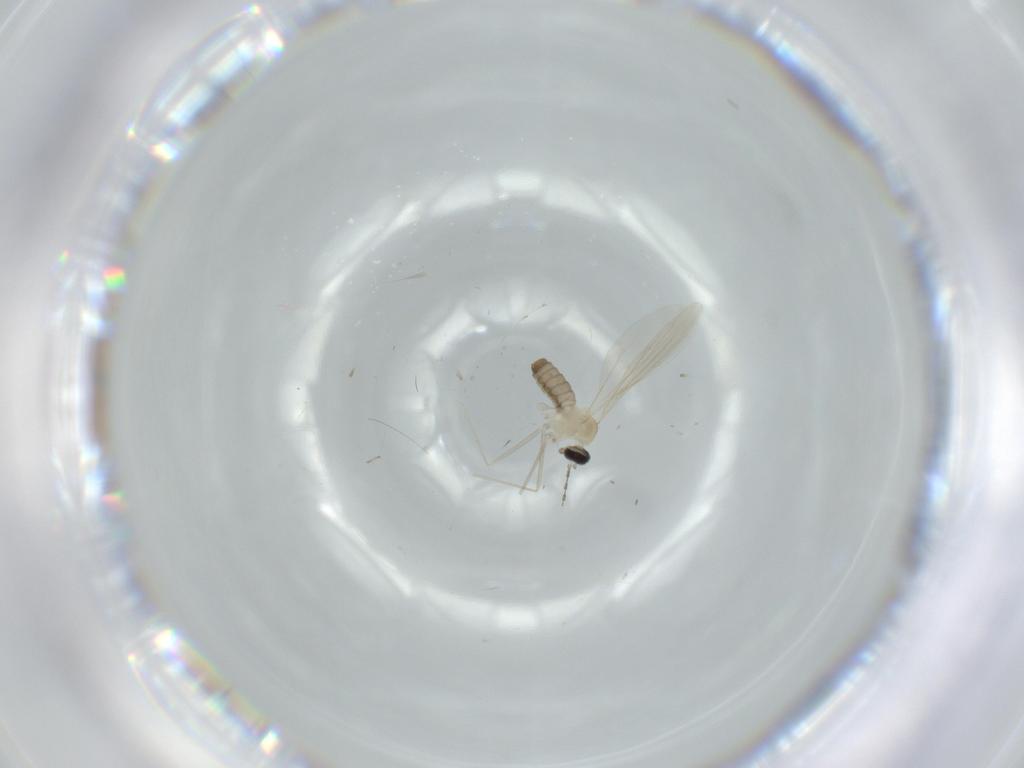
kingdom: Animalia
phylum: Arthropoda
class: Insecta
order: Diptera
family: Cecidomyiidae
